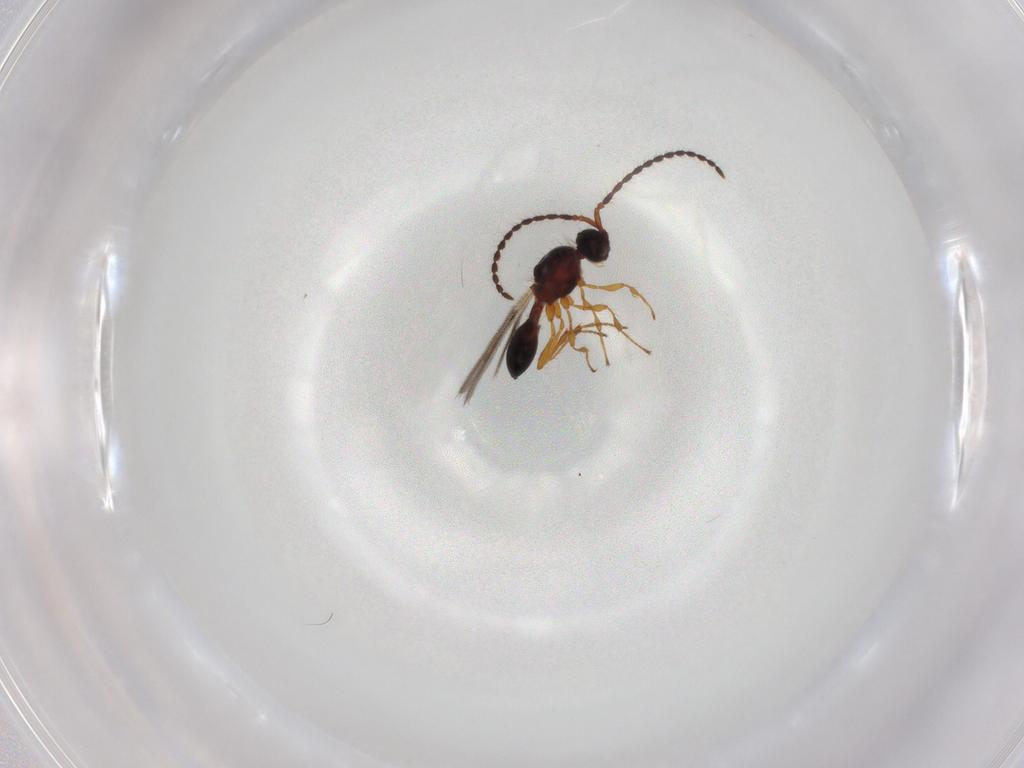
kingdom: Animalia
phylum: Arthropoda
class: Insecta
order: Hymenoptera
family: Diapriidae
